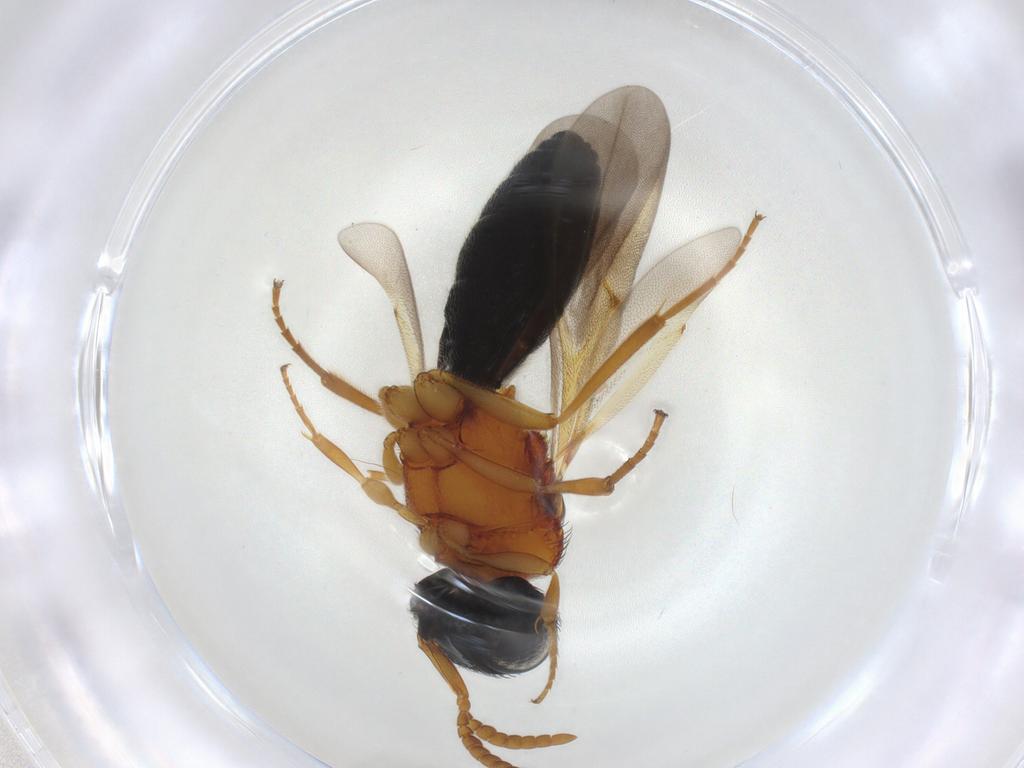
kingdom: Animalia
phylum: Arthropoda
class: Insecta
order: Hymenoptera
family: Scelionidae
